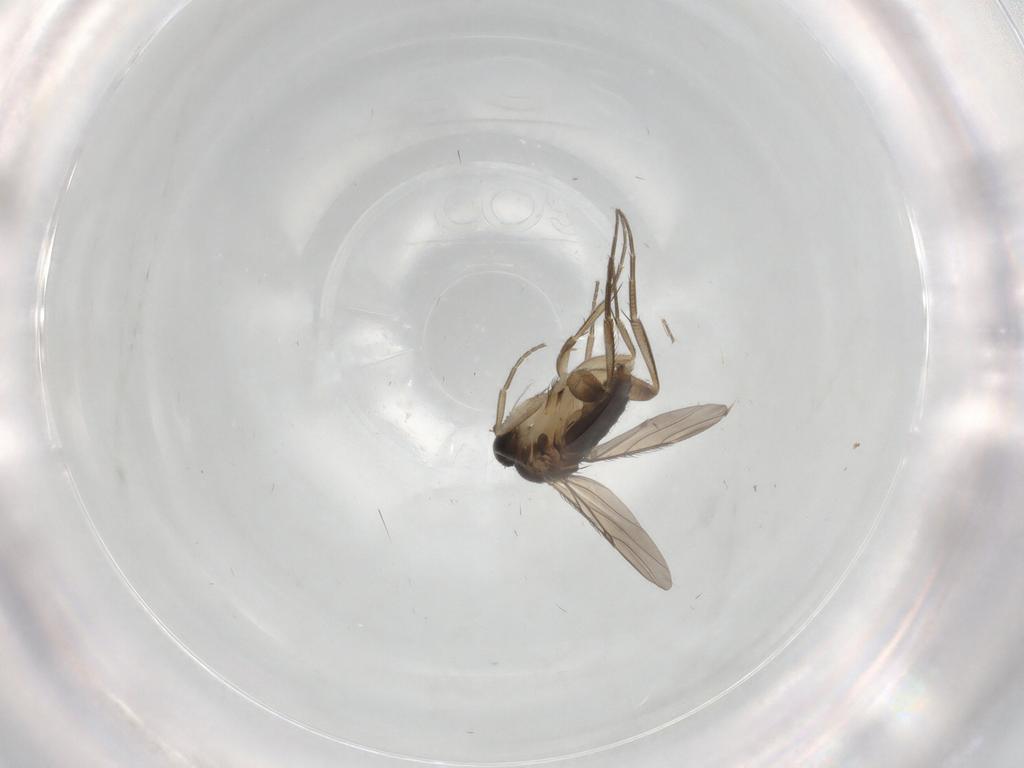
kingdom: Animalia
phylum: Arthropoda
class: Insecta
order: Diptera
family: Phoridae
